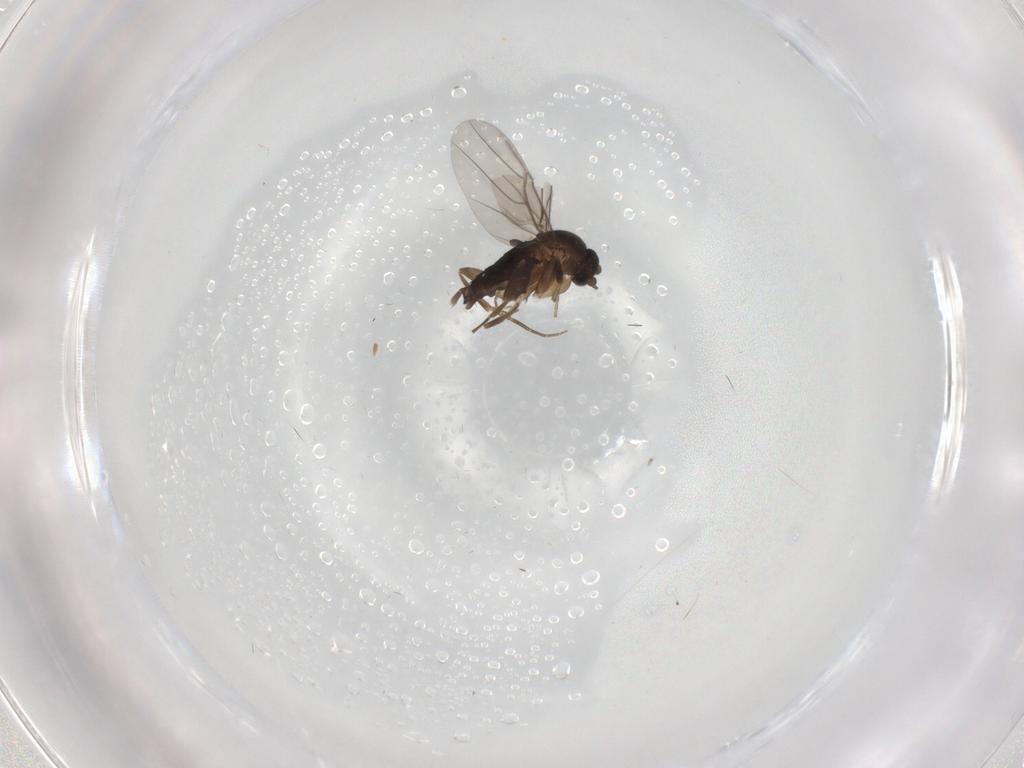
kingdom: Animalia
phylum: Arthropoda
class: Insecta
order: Diptera
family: Phoridae
